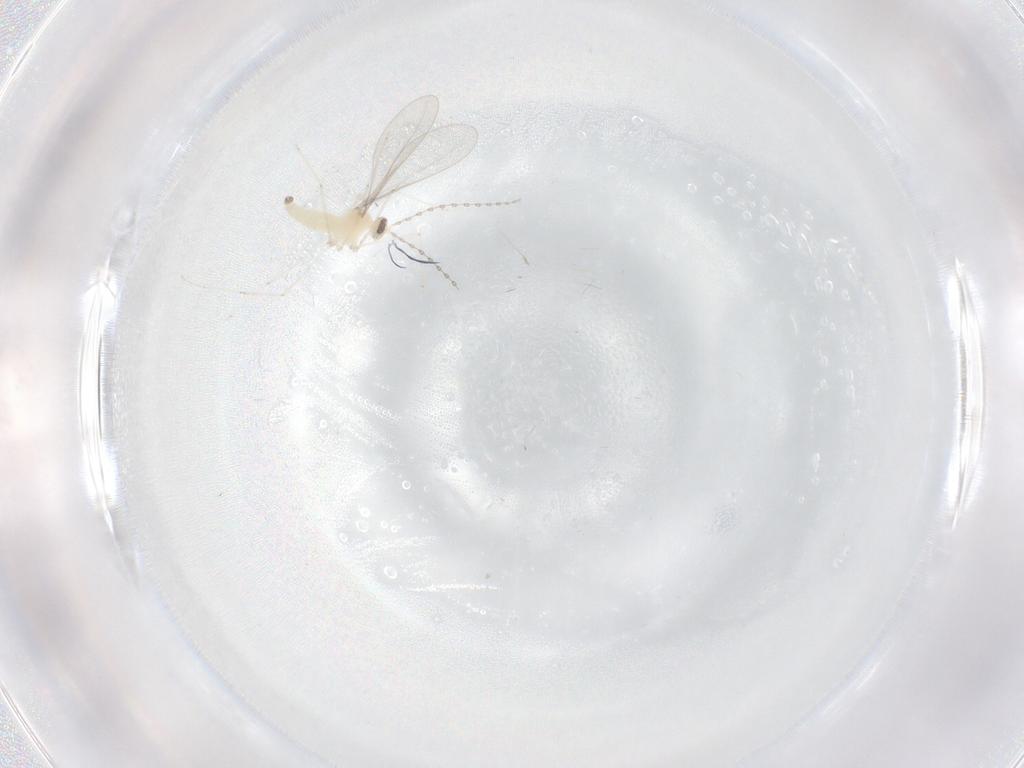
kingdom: Animalia
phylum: Arthropoda
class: Insecta
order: Diptera
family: Cecidomyiidae
